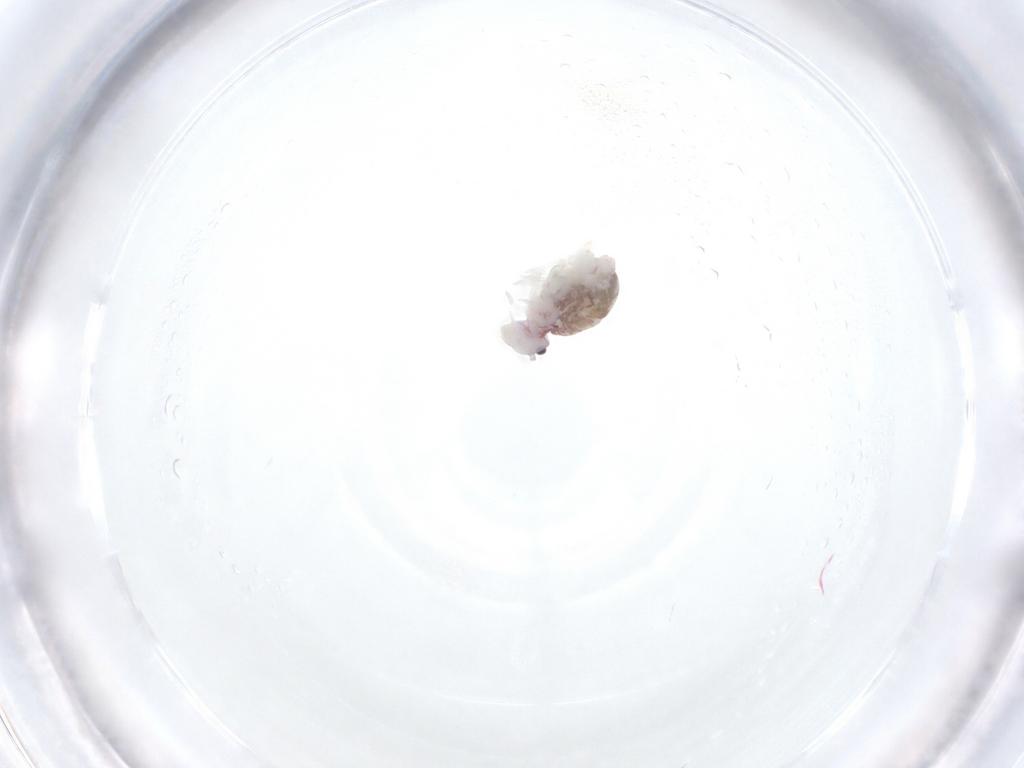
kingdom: Animalia
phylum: Arthropoda
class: Collembola
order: Symphypleona
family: Dicyrtomidae
